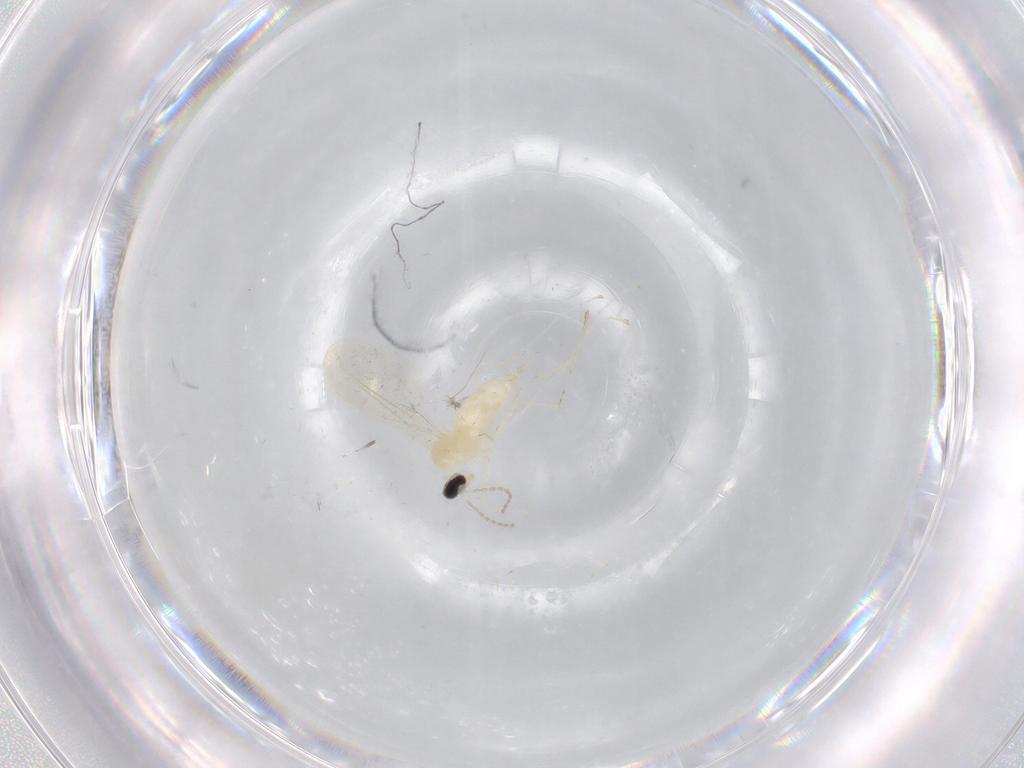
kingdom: Animalia
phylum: Arthropoda
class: Insecta
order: Diptera
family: Cecidomyiidae
